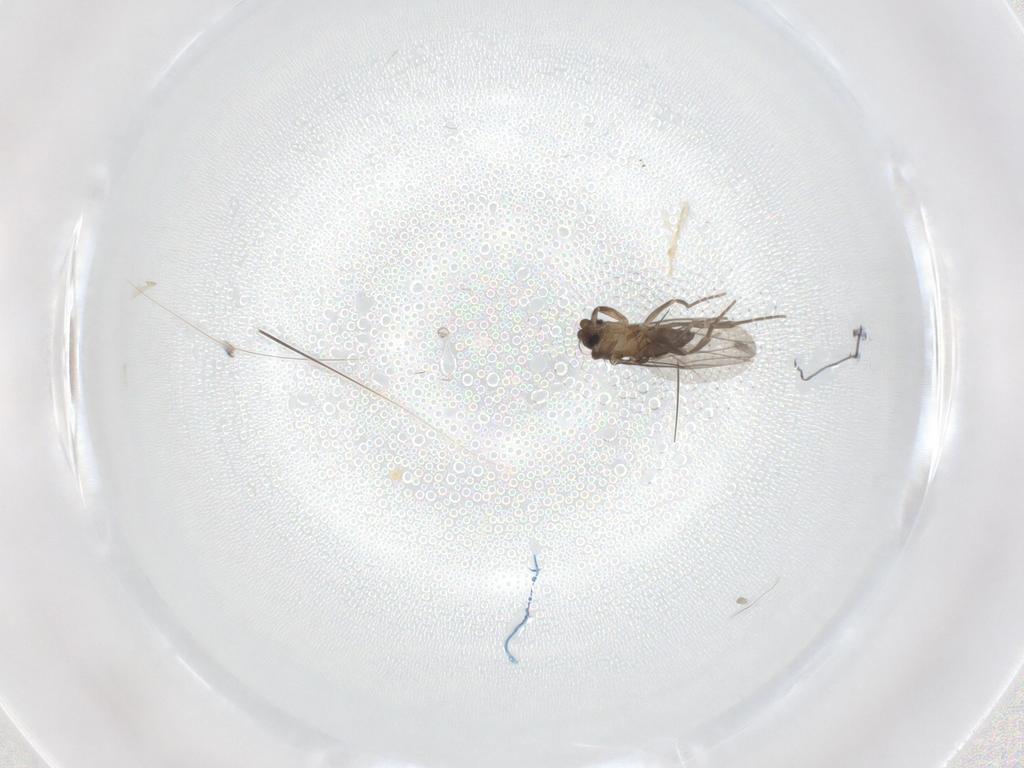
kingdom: Animalia
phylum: Arthropoda
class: Insecta
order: Diptera
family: Phoridae
